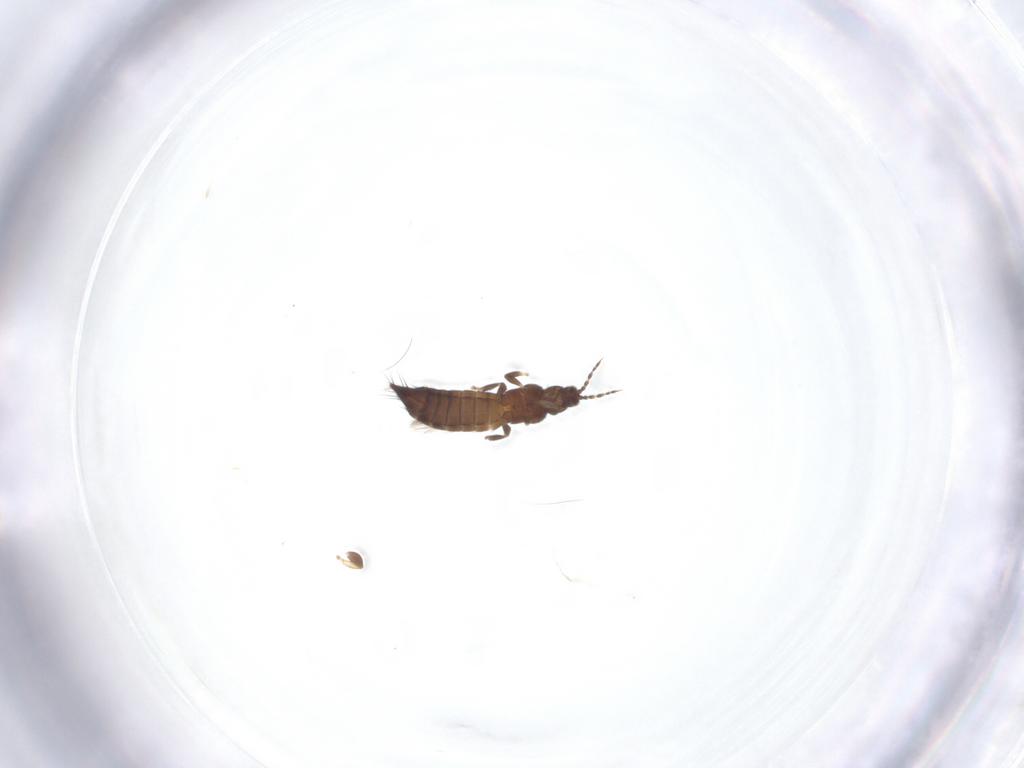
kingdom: Animalia
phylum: Arthropoda
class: Insecta
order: Thysanoptera
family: Thripidae
